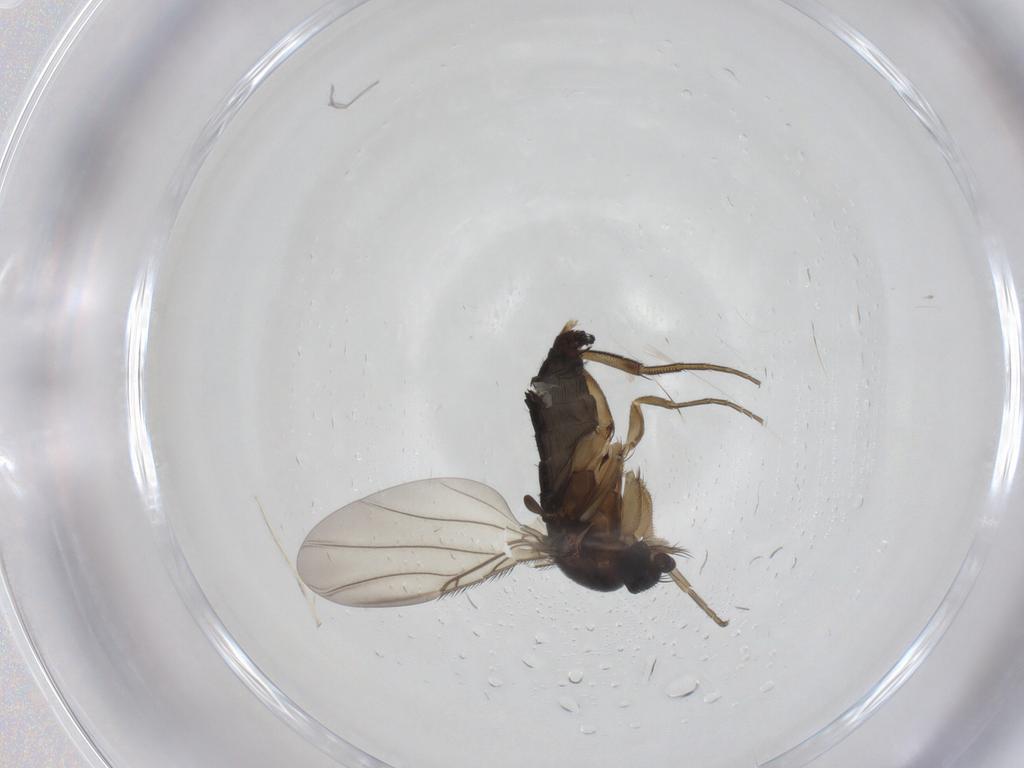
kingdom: Animalia
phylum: Arthropoda
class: Insecta
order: Diptera
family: Phoridae
